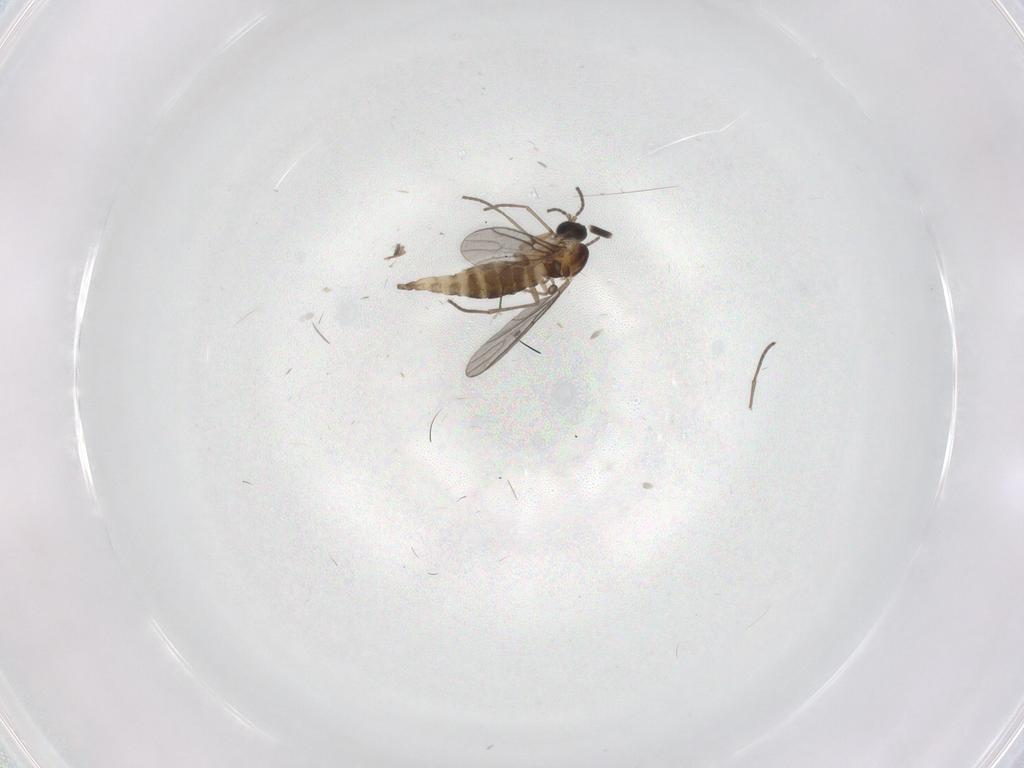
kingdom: Animalia
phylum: Arthropoda
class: Insecta
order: Diptera
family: Sciaridae
